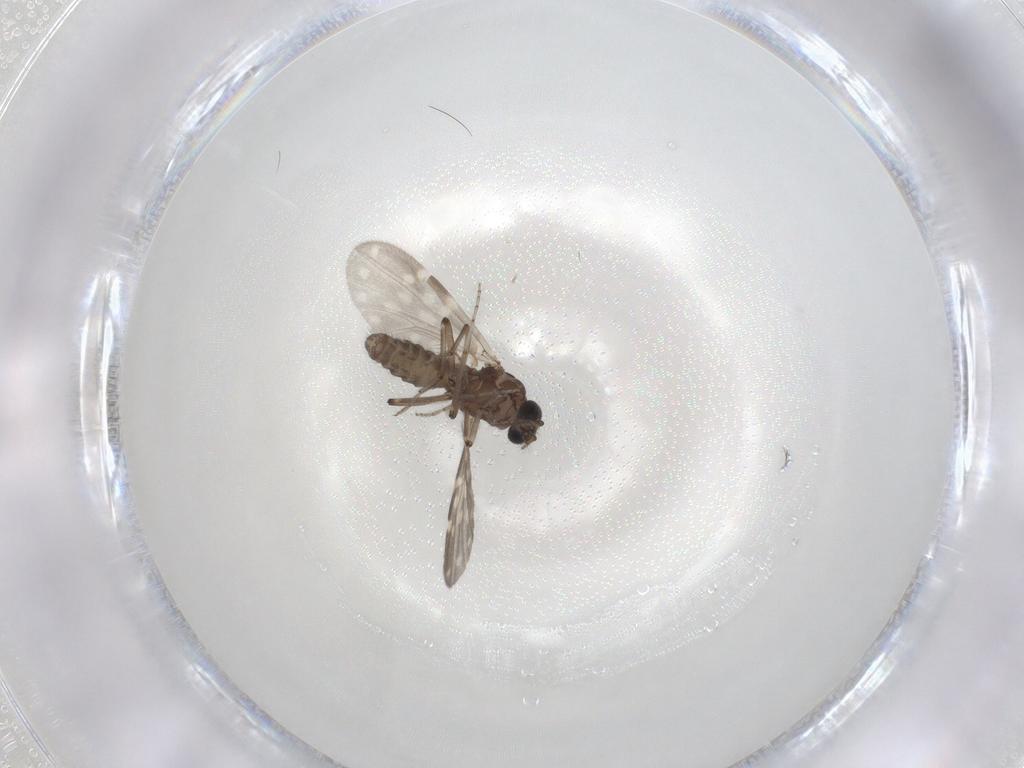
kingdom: Animalia
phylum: Arthropoda
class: Insecta
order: Diptera
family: Ceratopogonidae
